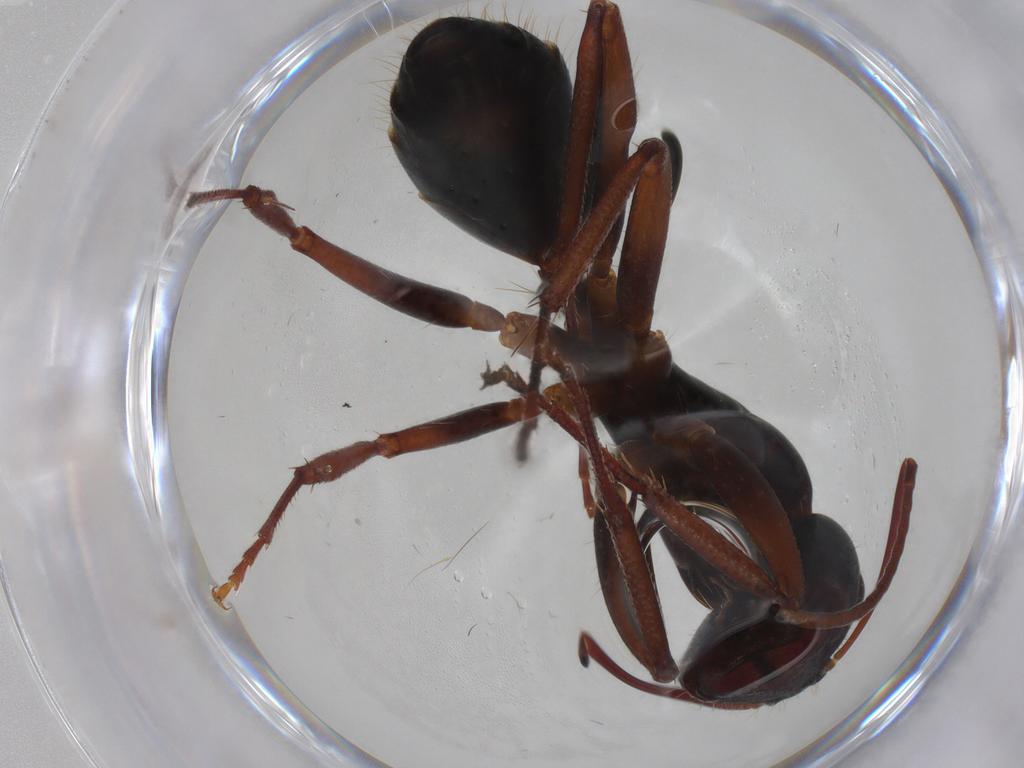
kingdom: Animalia
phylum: Arthropoda
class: Insecta
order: Hymenoptera
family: Formicidae
